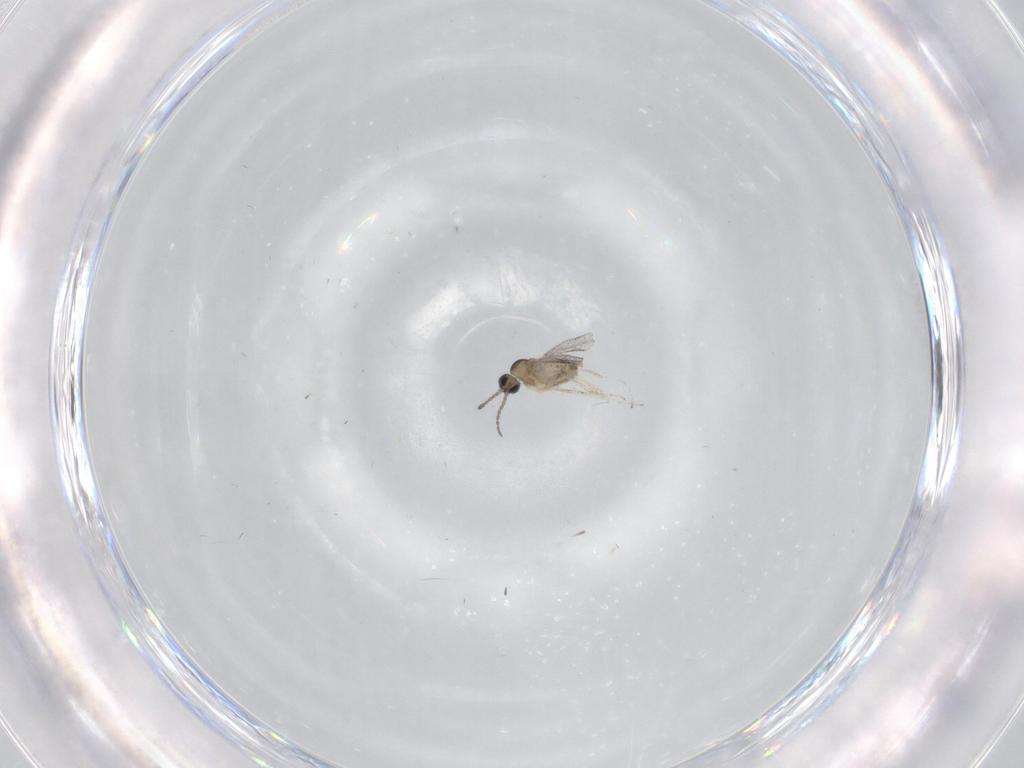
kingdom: Animalia
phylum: Arthropoda
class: Insecta
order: Diptera
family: Cecidomyiidae
